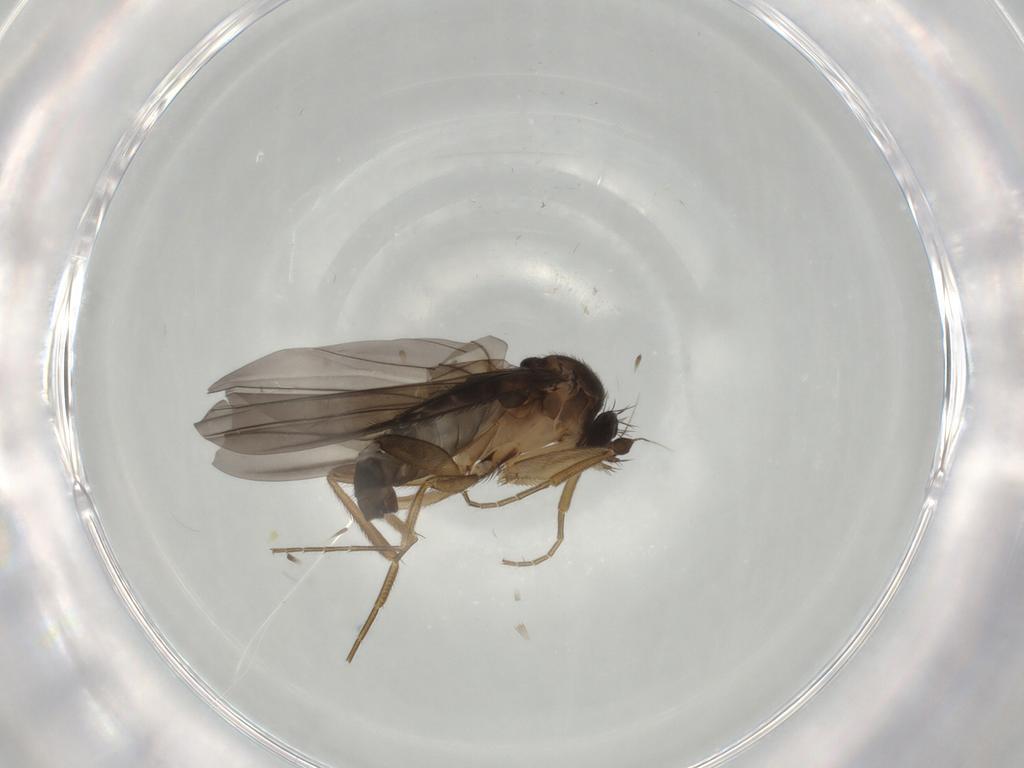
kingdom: Animalia
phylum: Arthropoda
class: Insecta
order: Diptera
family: Phoridae
